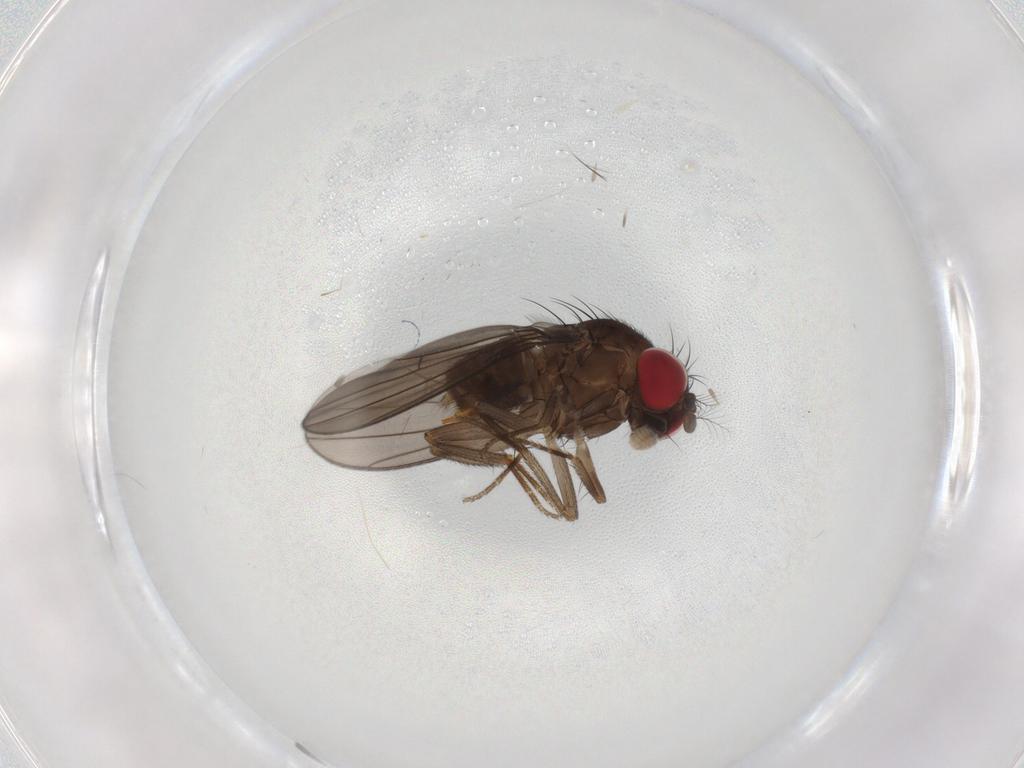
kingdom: Animalia
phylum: Arthropoda
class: Insecta
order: Diptera
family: Drosophilidae
